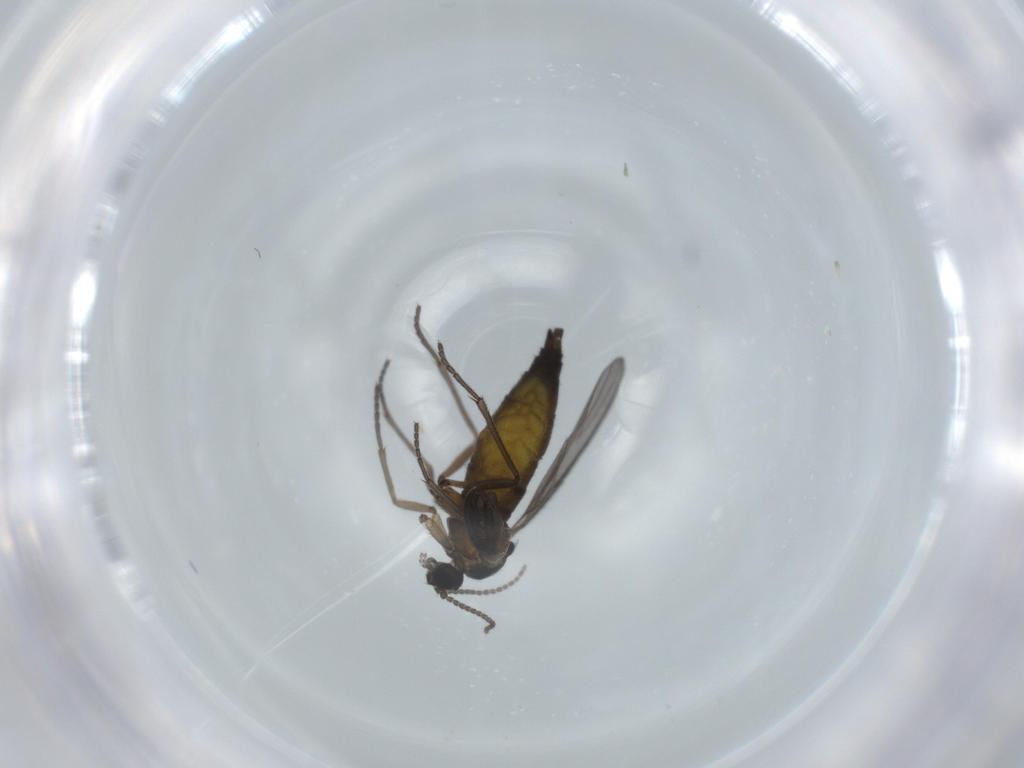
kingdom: Animalia
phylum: Arthropoda
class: Insecta
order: Diptera
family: Sciaridae
